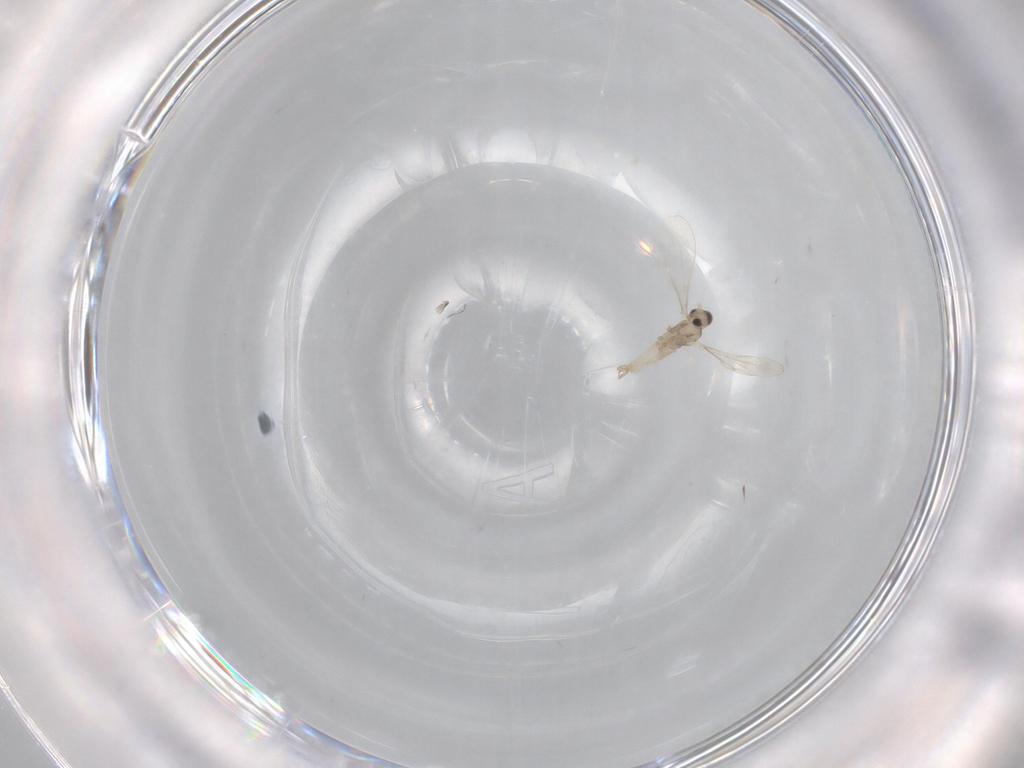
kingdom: Animalia
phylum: Arthropoda
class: Insecta
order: Diptera
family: Cecidomyiidae
